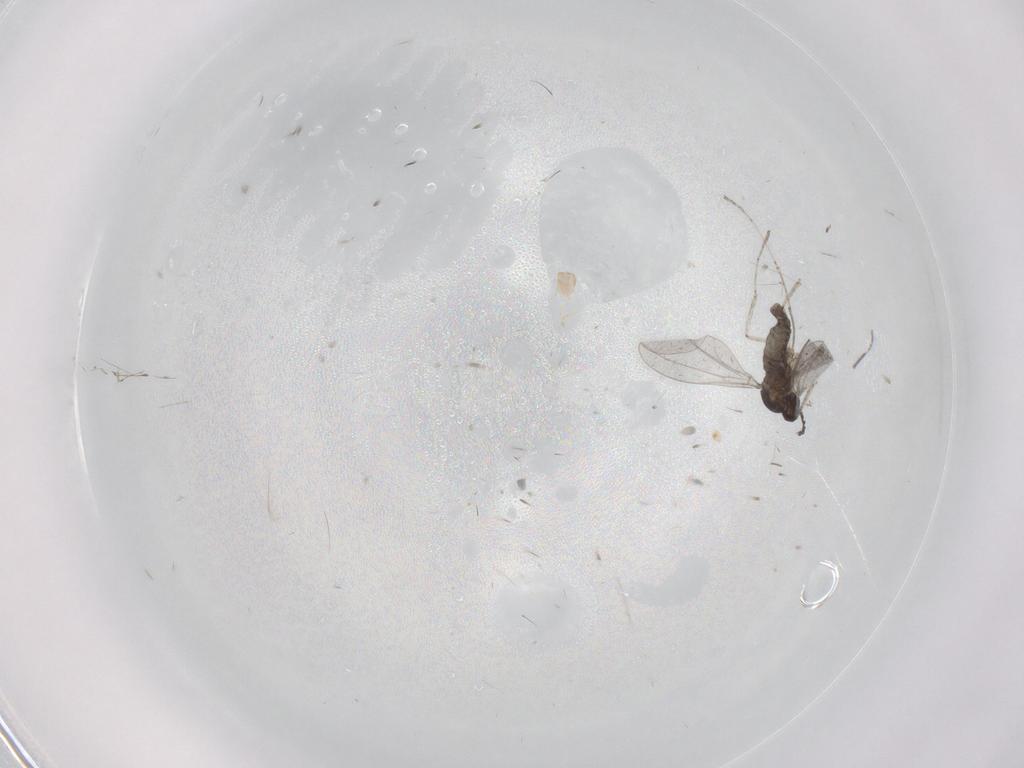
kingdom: Animalia
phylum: Arthropoda
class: Insecta
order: Diptera
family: Cecidomyiidae
